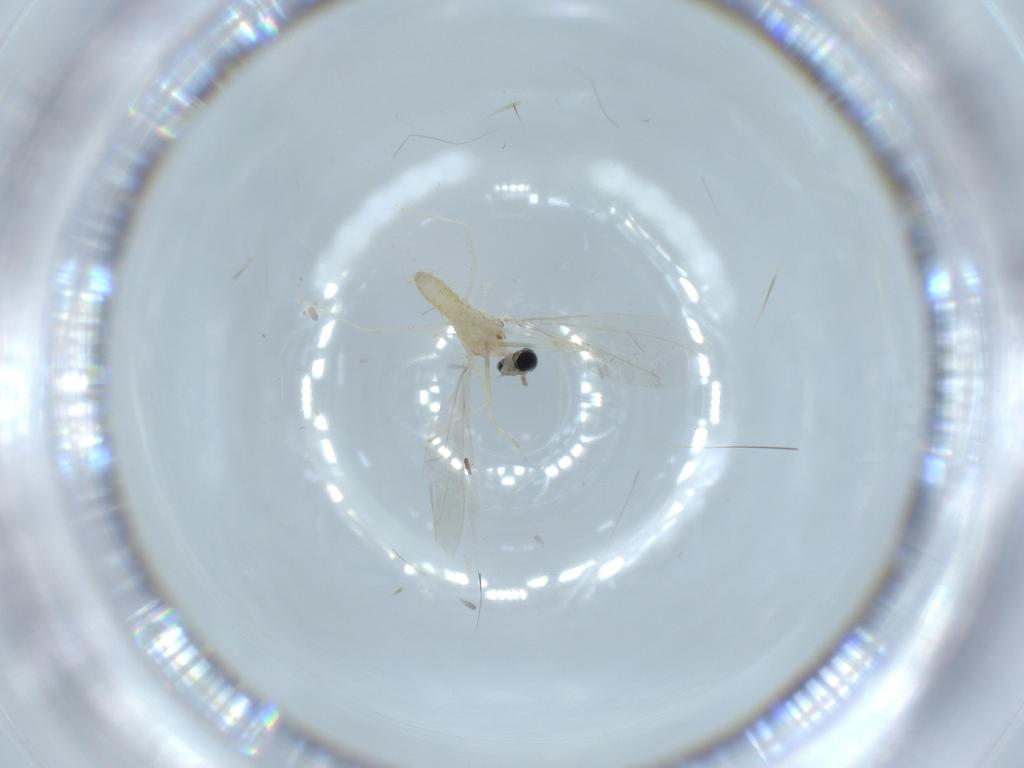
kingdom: Animalia
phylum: Arthropoda
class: Insecta
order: Diptera
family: Cecidomyiidae
